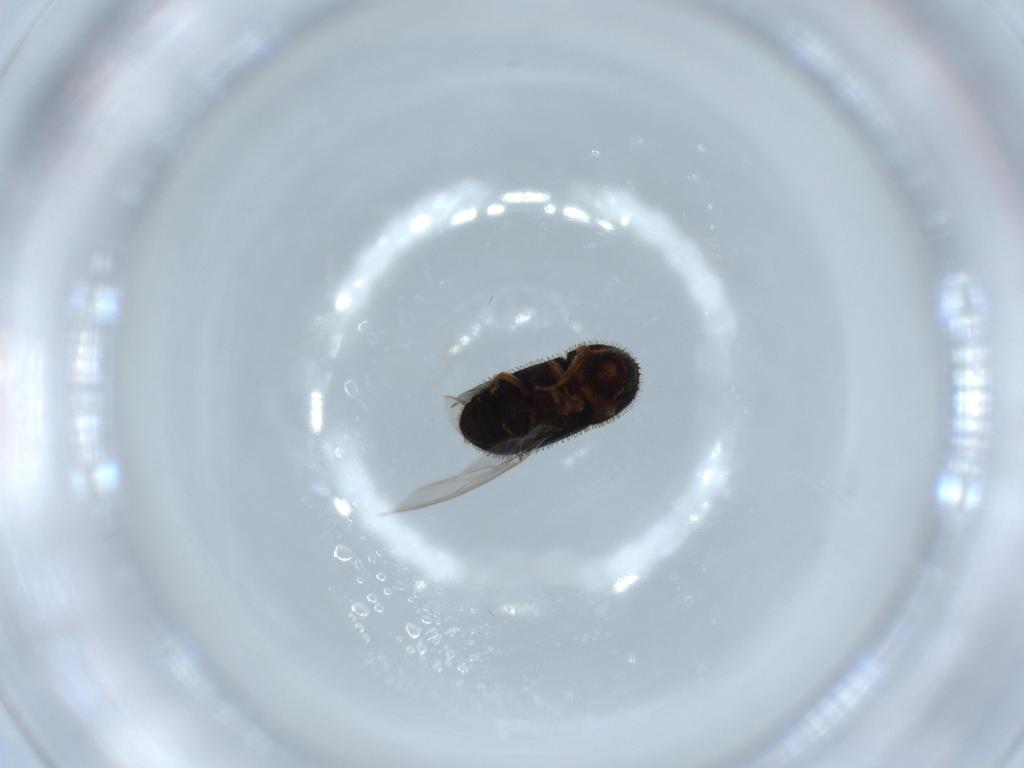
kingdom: Animalia
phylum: Arthropoda
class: Insecta
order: Coleoptera
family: Curculionidae
